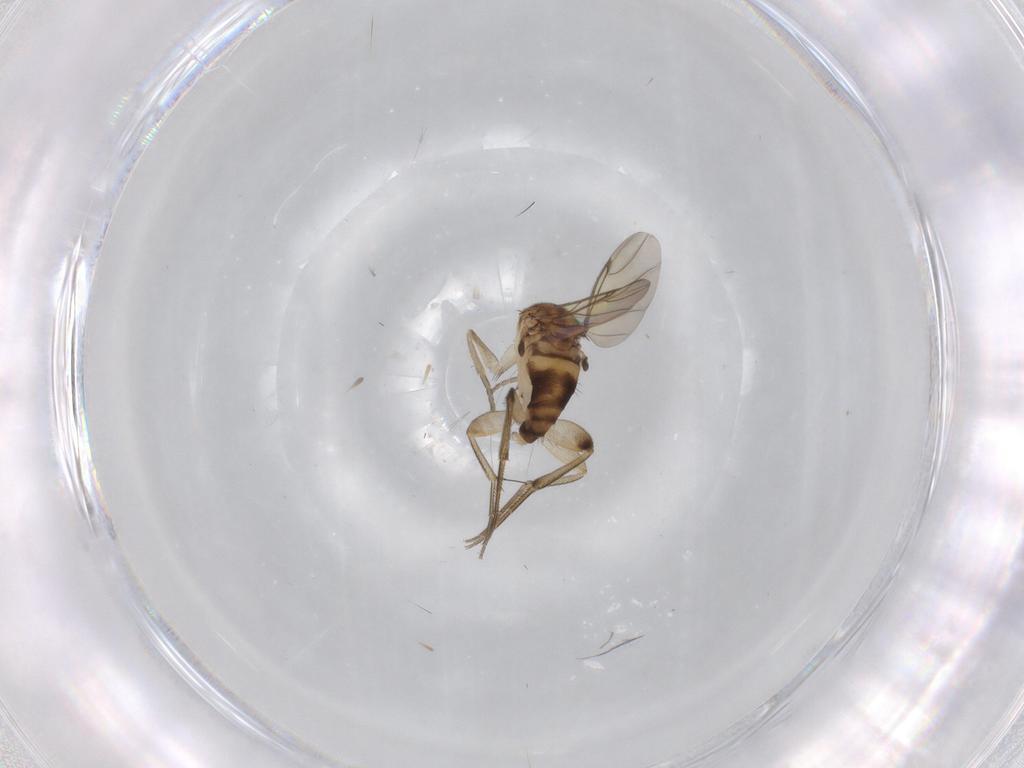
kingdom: Animalia
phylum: Arthropoda
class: Insecta
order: Diptera
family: Phoridae
